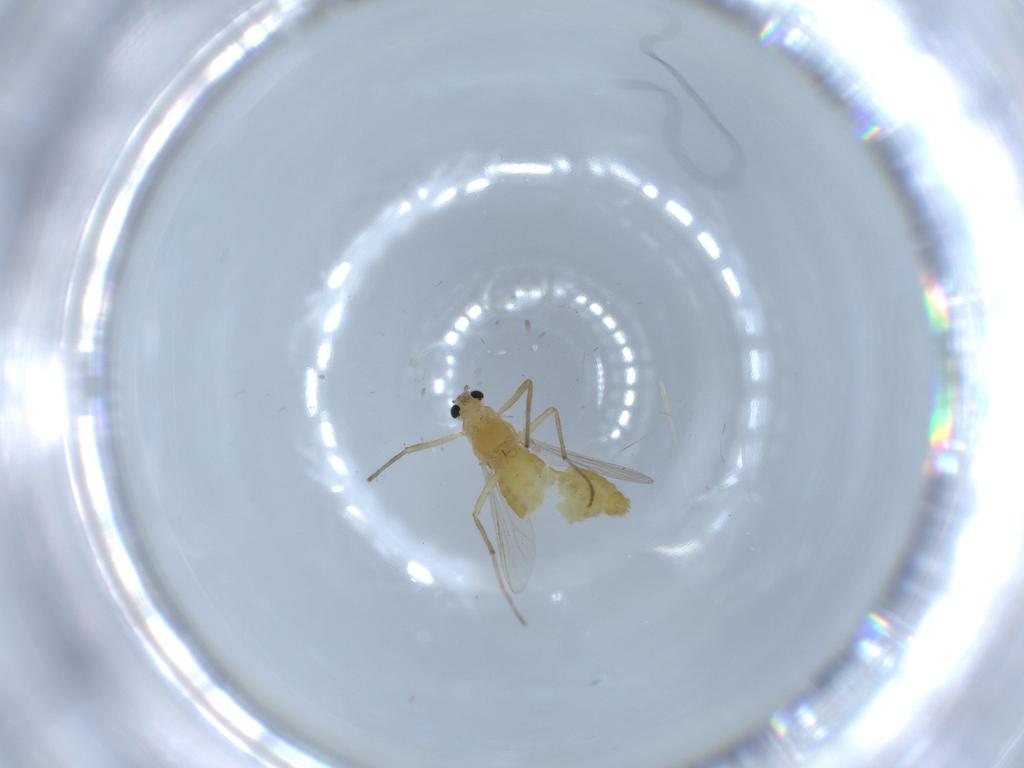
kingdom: Animalia
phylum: Arthropoda
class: Insecta
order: Diptera
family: Chironomidae
